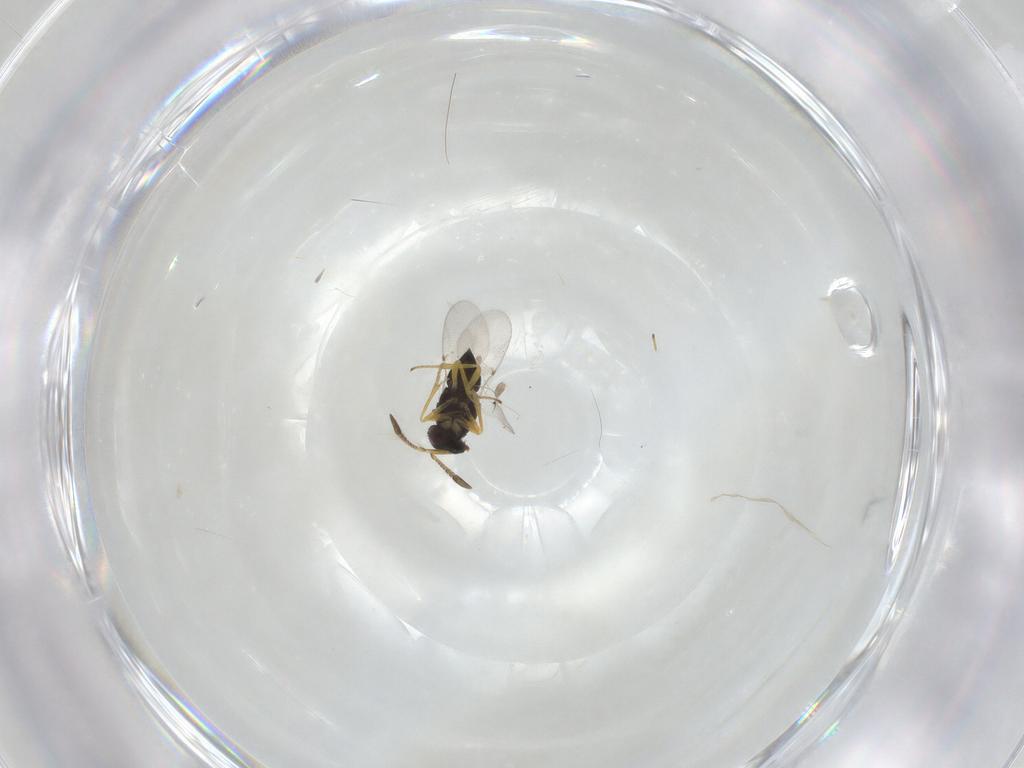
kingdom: Animalia
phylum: Arthropoda
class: Insecta
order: Hymenoptera
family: Encyrtidae
